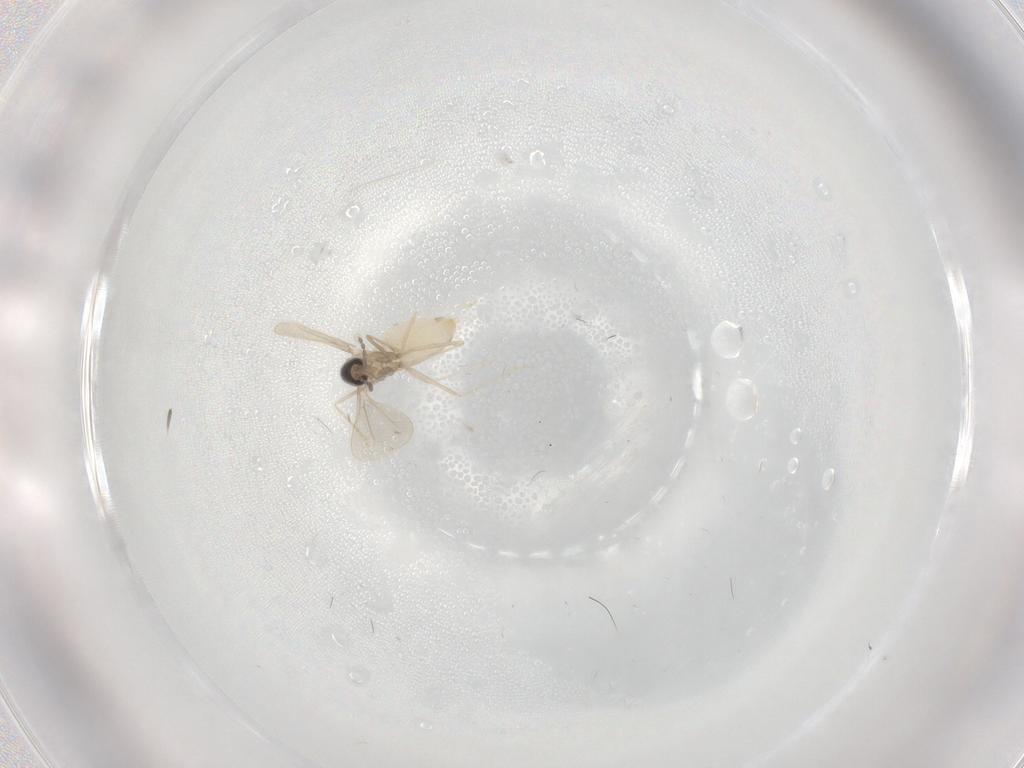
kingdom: Animalia
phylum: Arthropoda
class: Insecta
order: Diptera
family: Cecidomyiidae
